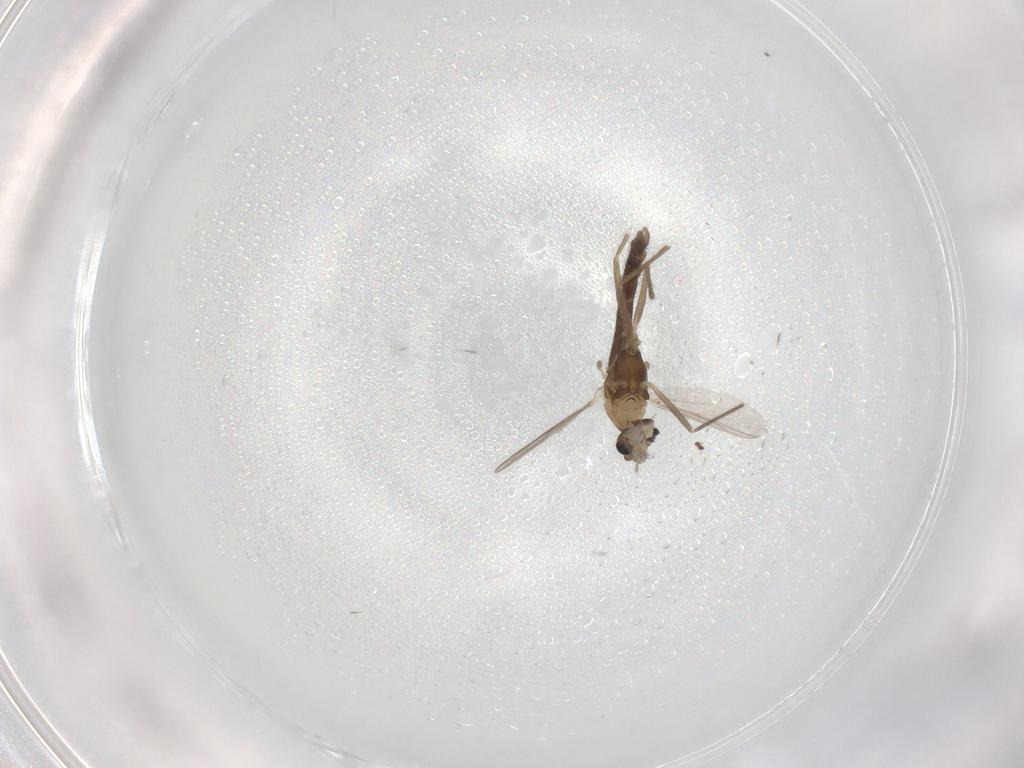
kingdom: Animalia
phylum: Arthropoda
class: Insecta
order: Diptera
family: Chironomidae
